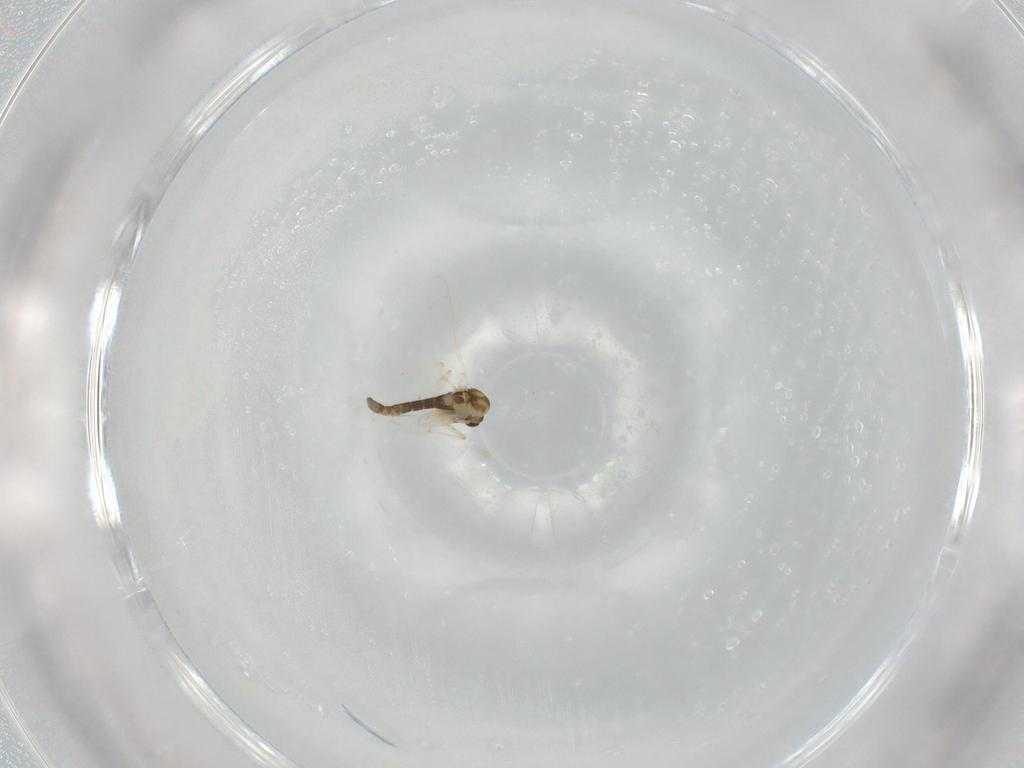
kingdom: Animalia
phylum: Arthropoda
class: Insecta
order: Diptera
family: Chironomidae
